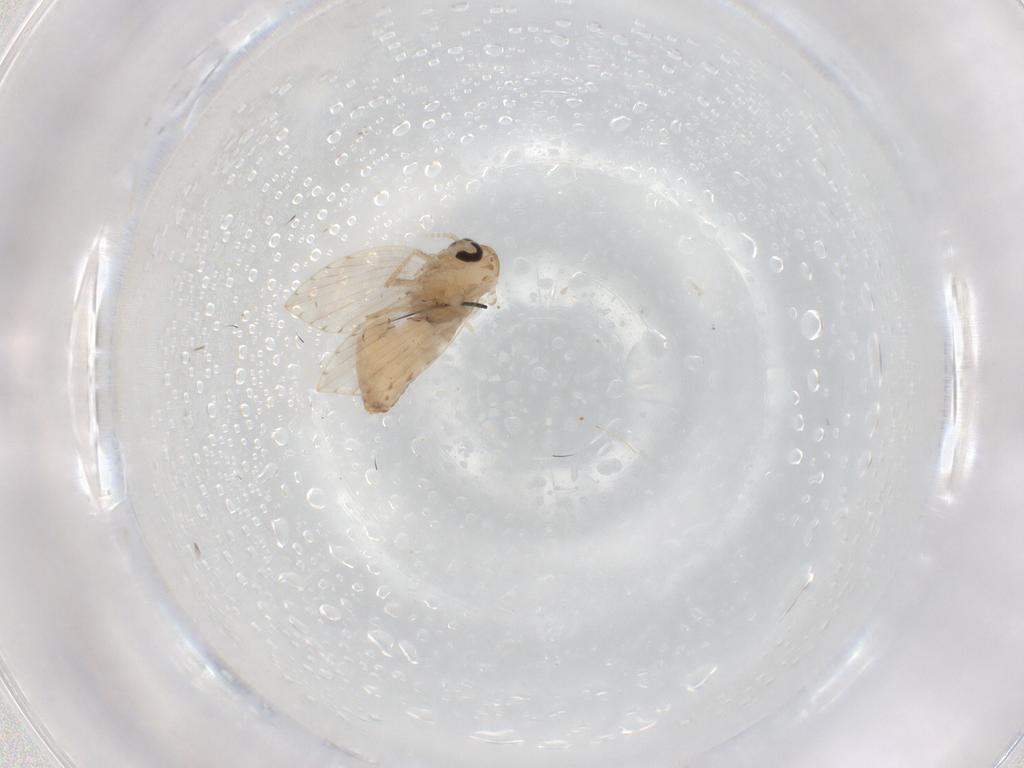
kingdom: Animalia
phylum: Arthropoda
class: Insecta
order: Diptera
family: Psychodidae
